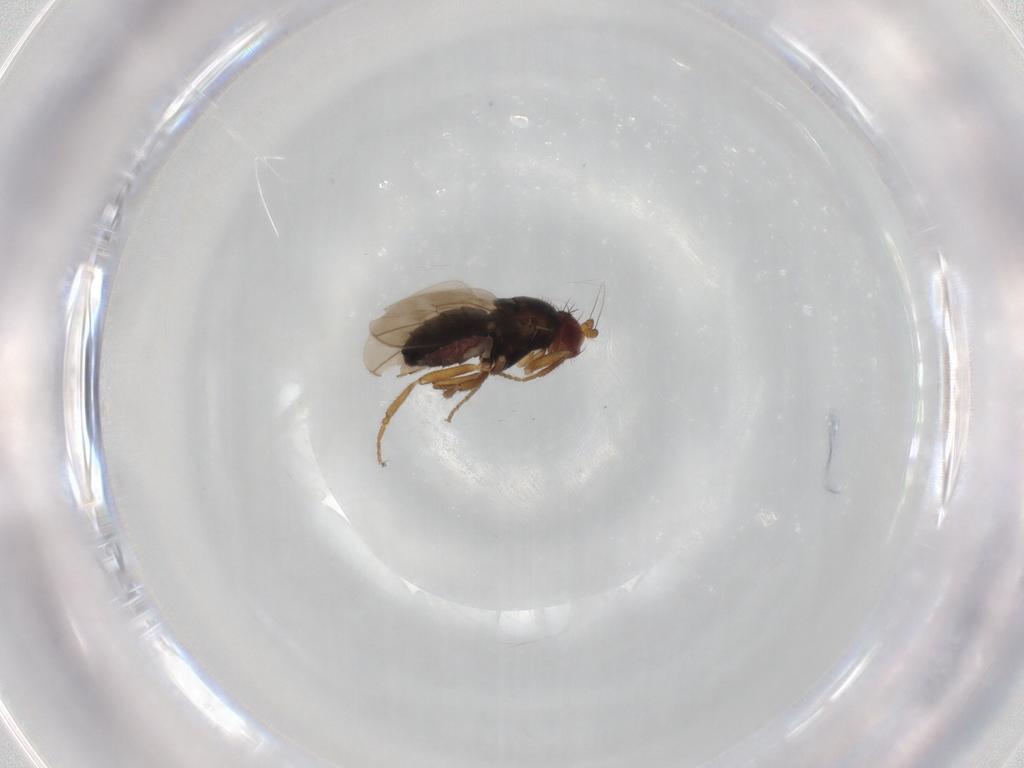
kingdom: Animalia
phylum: Arthropoda
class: Insecta
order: Diptera
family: Sphaeroceridae
